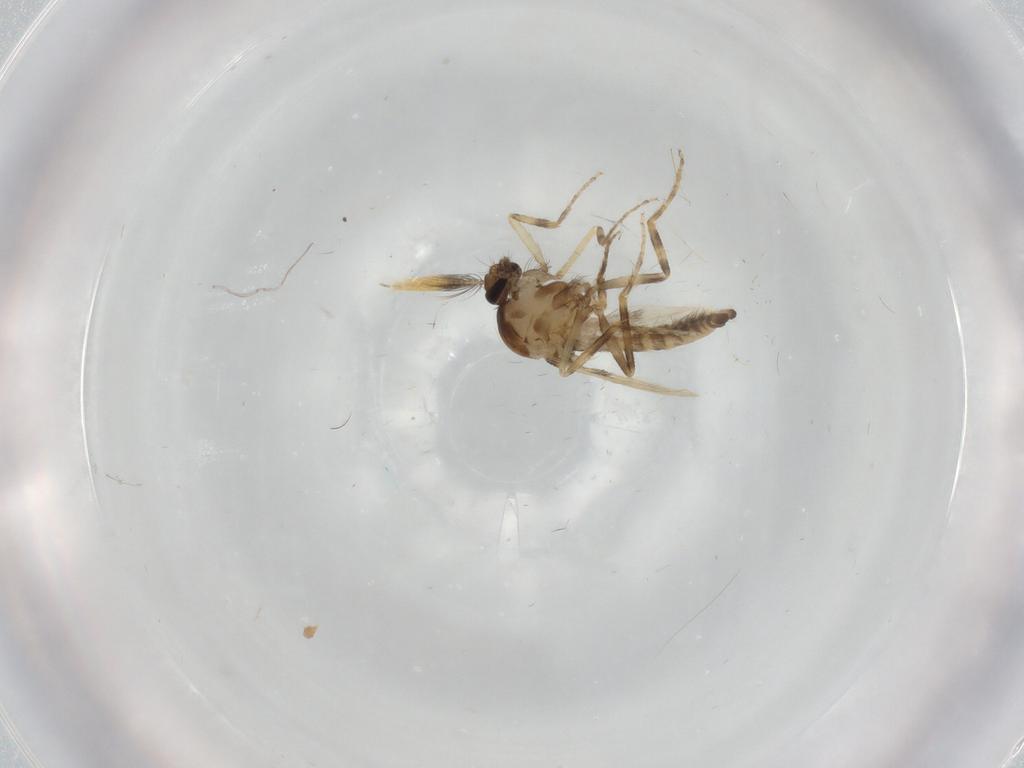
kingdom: Animalia
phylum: Arthropoda
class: Insecta
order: Diptera
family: Ceratopogonidae
